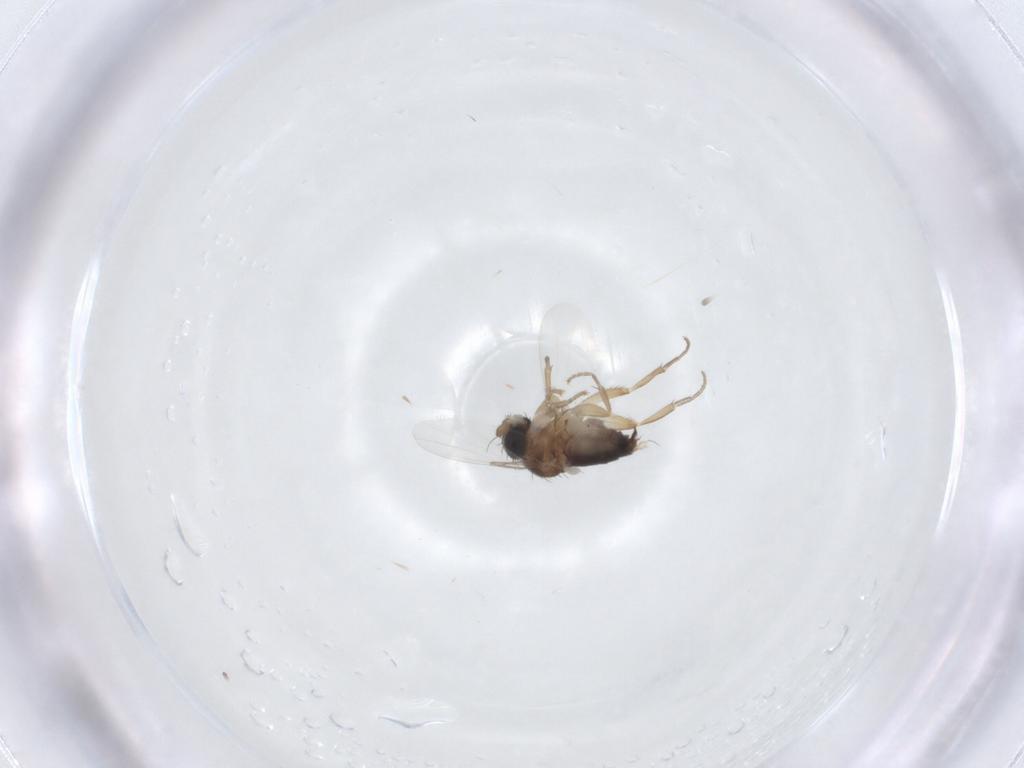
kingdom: Animalia
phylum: Arthropoda
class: Insecta
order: Diptera
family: Phoridae
